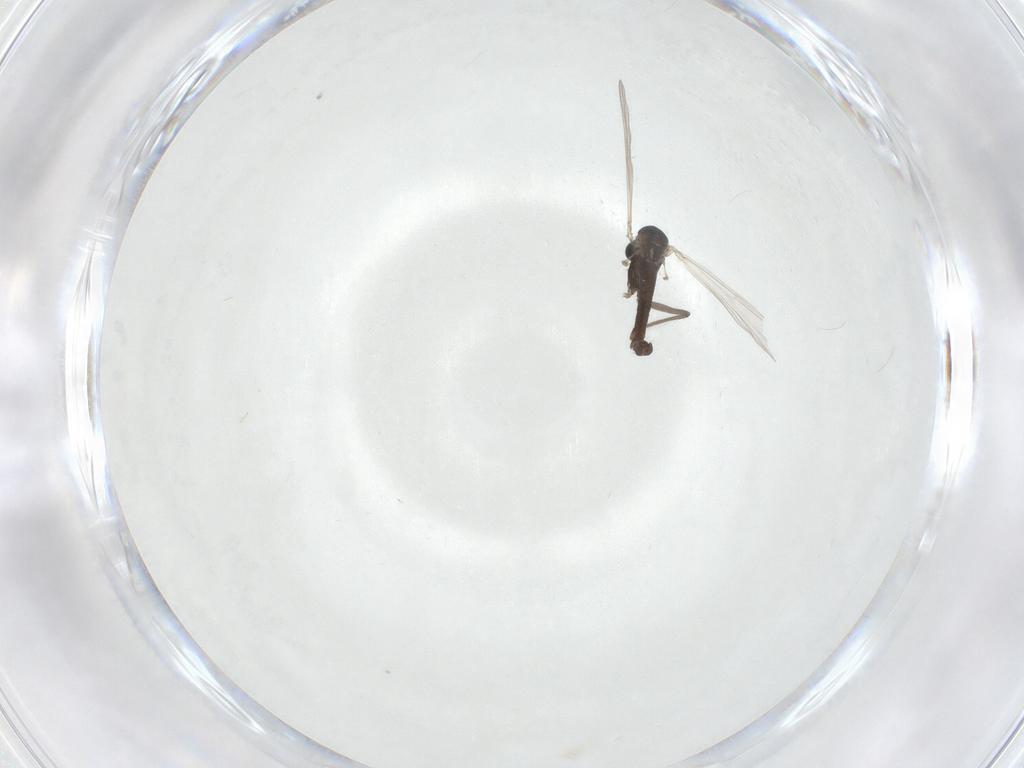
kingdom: Animalia
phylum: Arthropoda
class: Insecta
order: Diptera
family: Chironomidae
